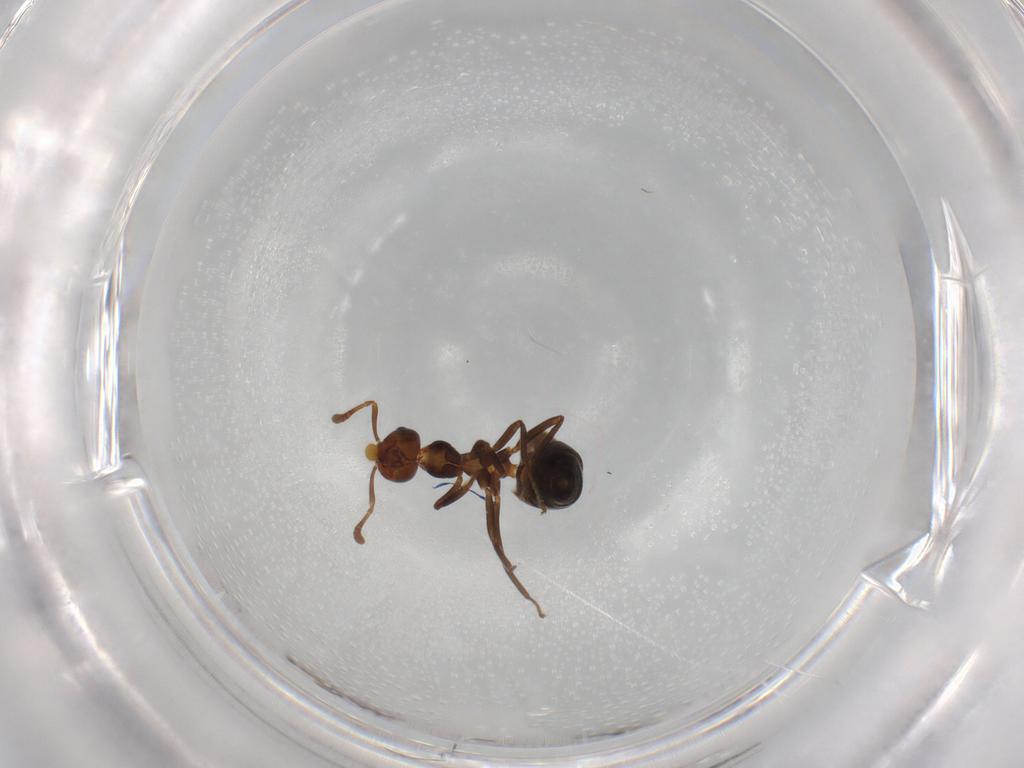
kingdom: Animalia
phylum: Arthropoda
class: Insecta
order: Hymenoptera
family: Formicidae
